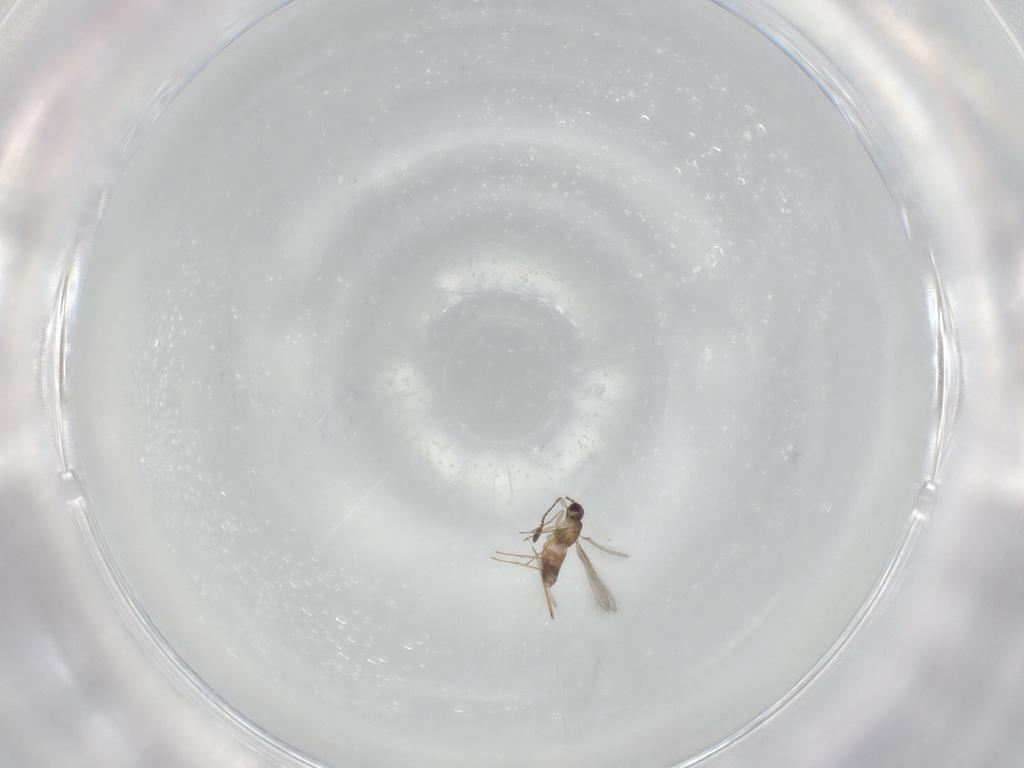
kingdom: Animalia
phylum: Arthropoda
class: Insecta
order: Hymenoptera
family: Mymaridae
